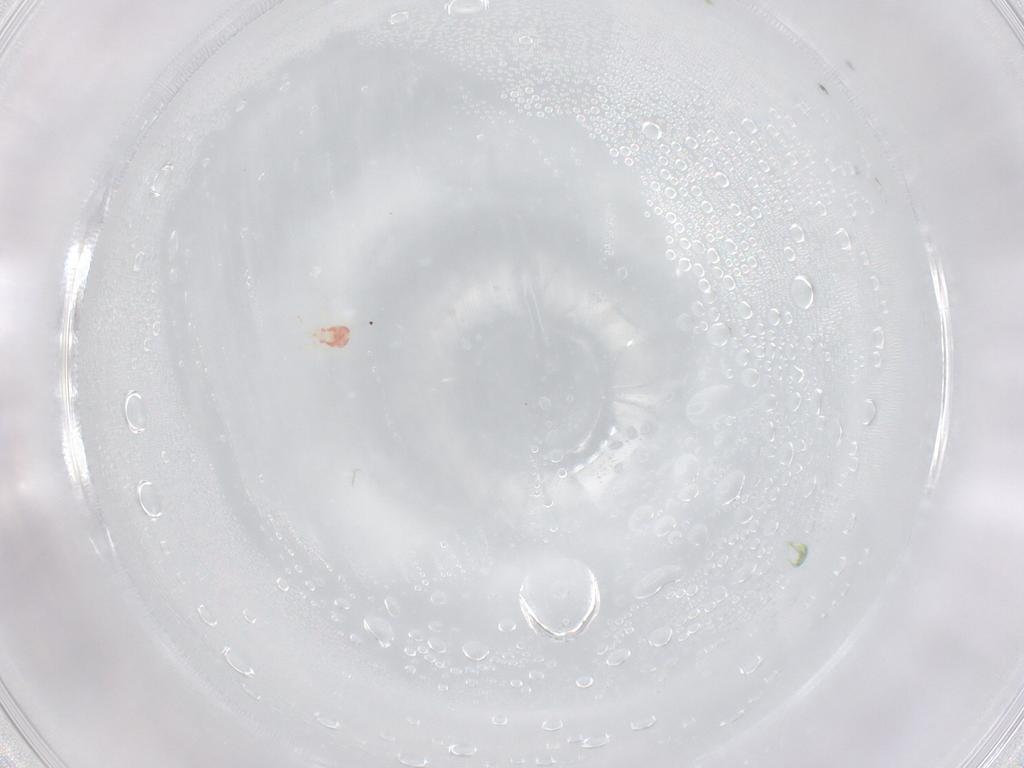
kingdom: Animalia
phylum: Arthropoda
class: Arachnida
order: Mesostigmata
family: Phytoseiidae
